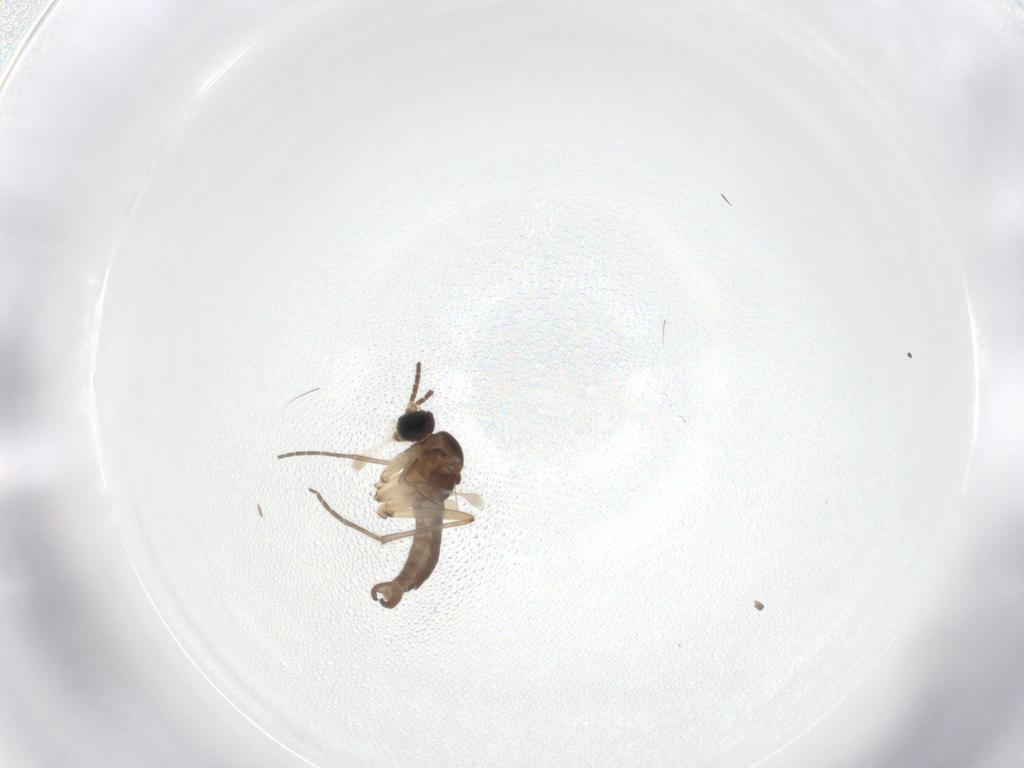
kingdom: Animalia
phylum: Arthropoda
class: Insecta
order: Diptera
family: Sciaridae
